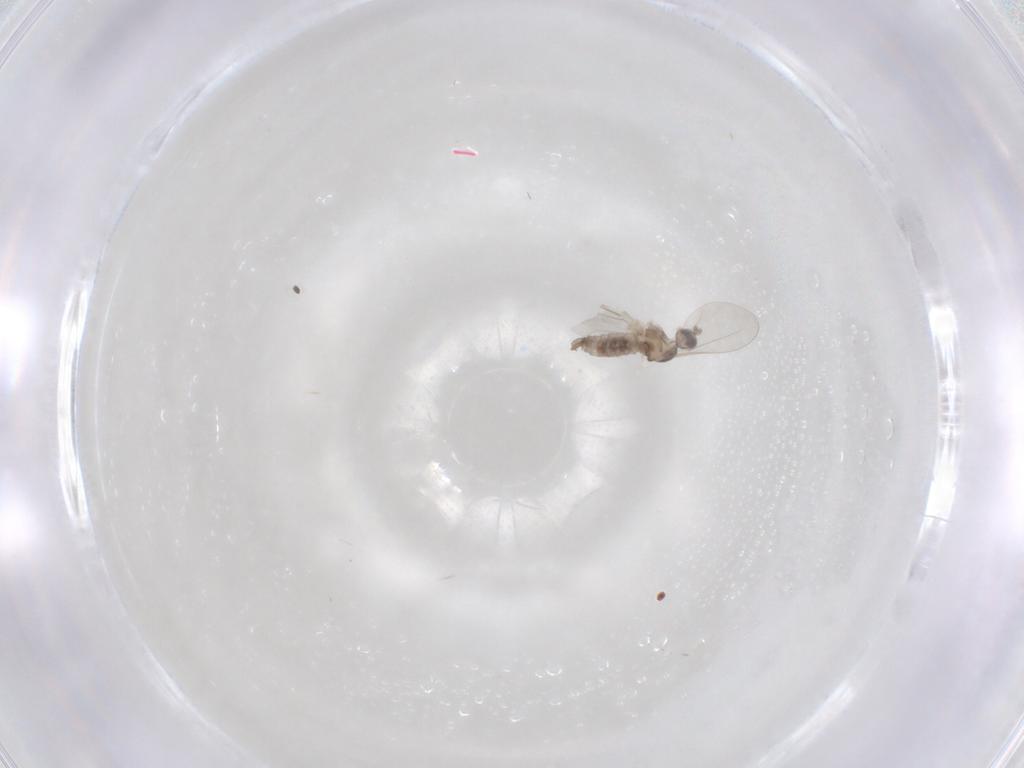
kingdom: Animalia
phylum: Arthropoda
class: Insecta
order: Diptera
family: Cecidomyiidae
